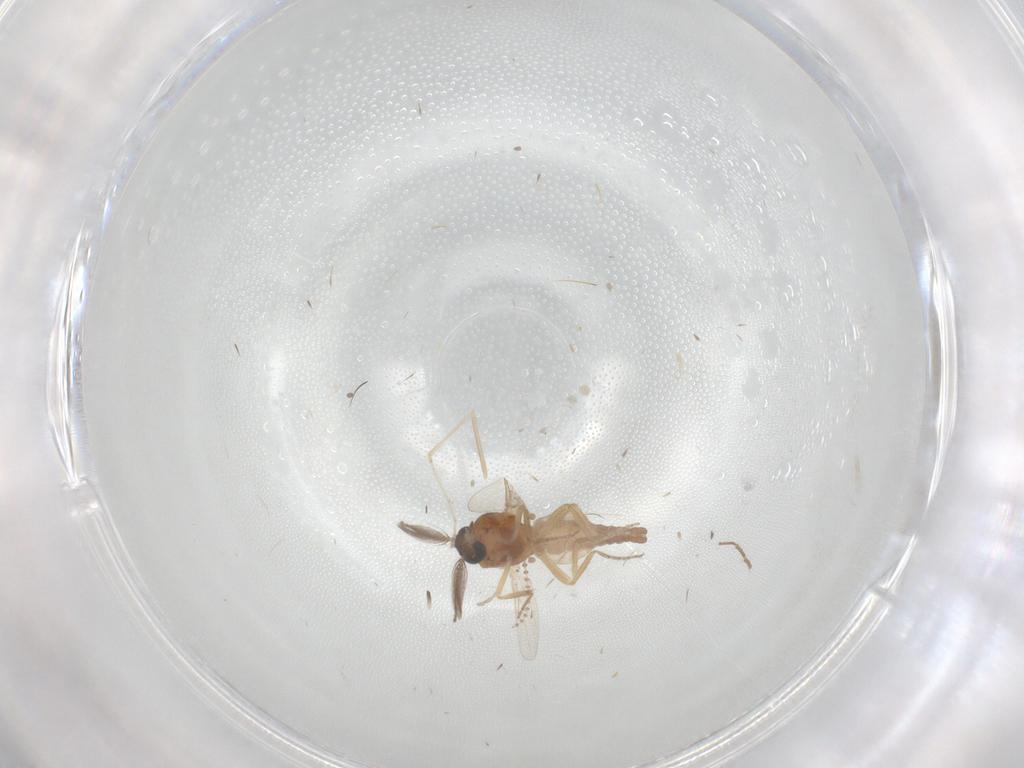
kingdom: Animalia
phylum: Arthropoda
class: Insecta
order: Diptera
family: Ceratopogonidae
